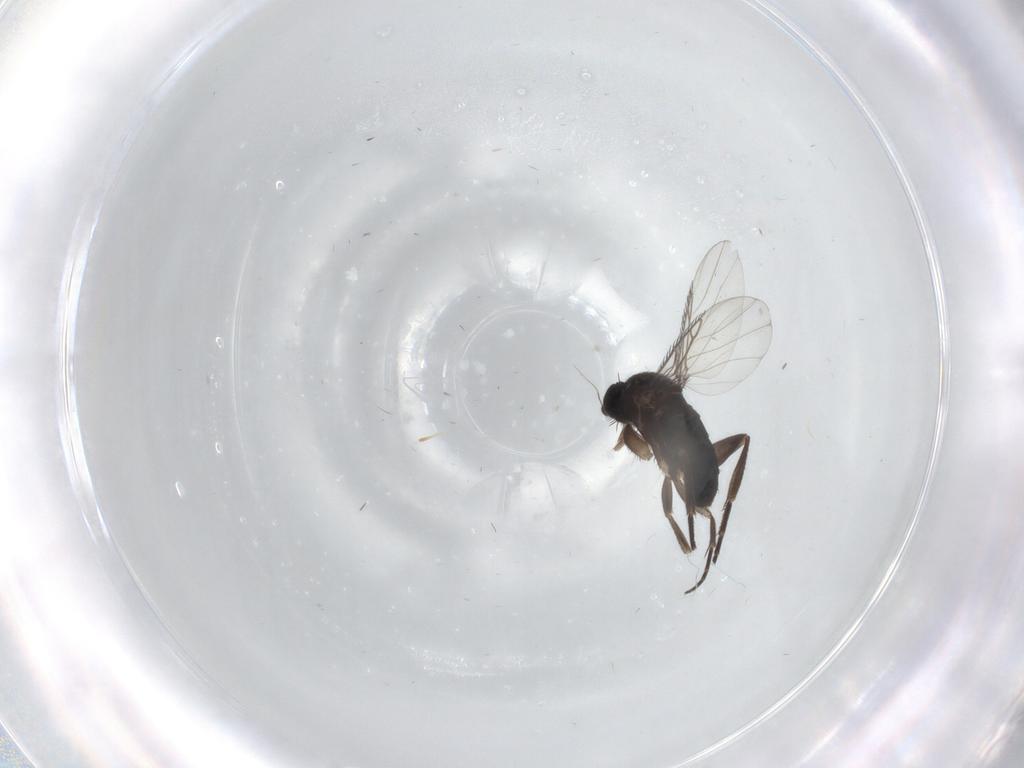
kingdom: Animalia
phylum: Arthropoda
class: Insecta
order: Diptera
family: Phoridae
